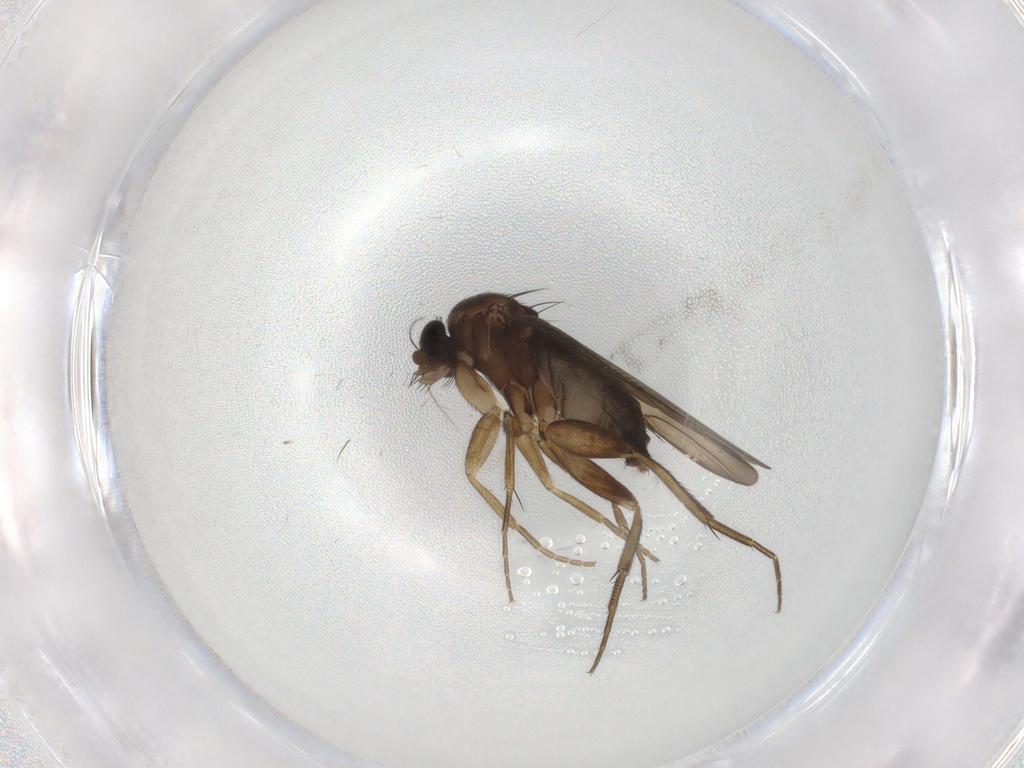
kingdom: Animalia
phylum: Arthropoda
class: Insecta
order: Diptera
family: Phoridae
